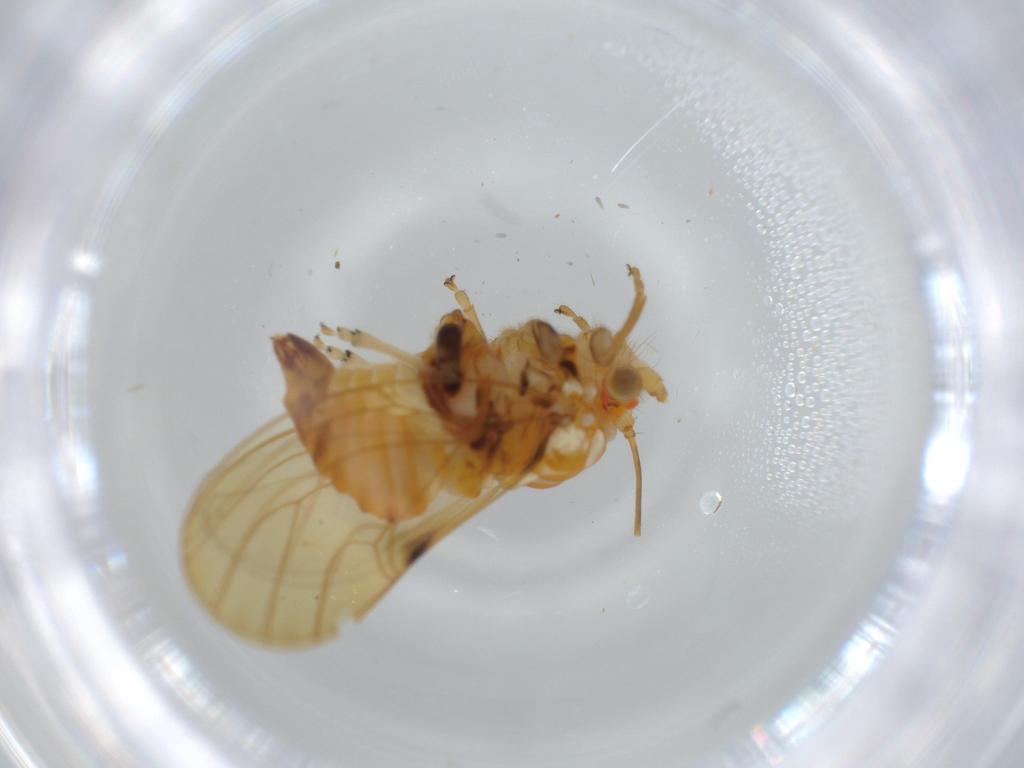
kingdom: Animalia
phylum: Arthropoda
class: Insecta
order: Hemiptera
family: Psyllidae
